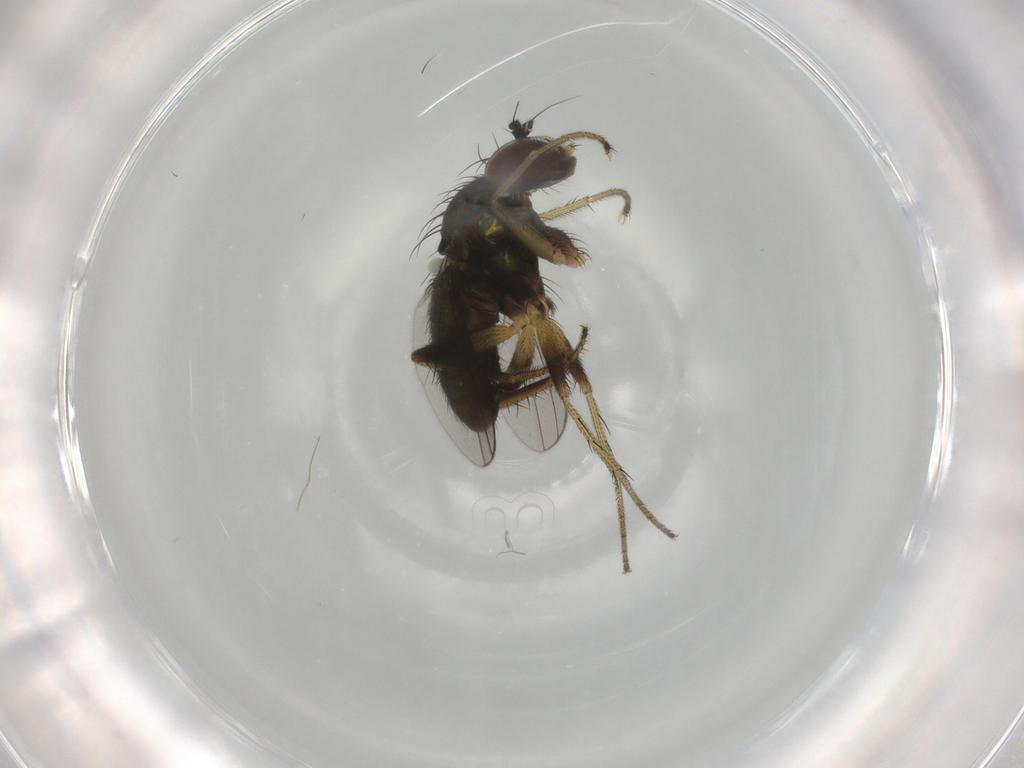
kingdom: Animalia
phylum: Arthropoda
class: Insecta
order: Diptera
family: Dolichopodidae
